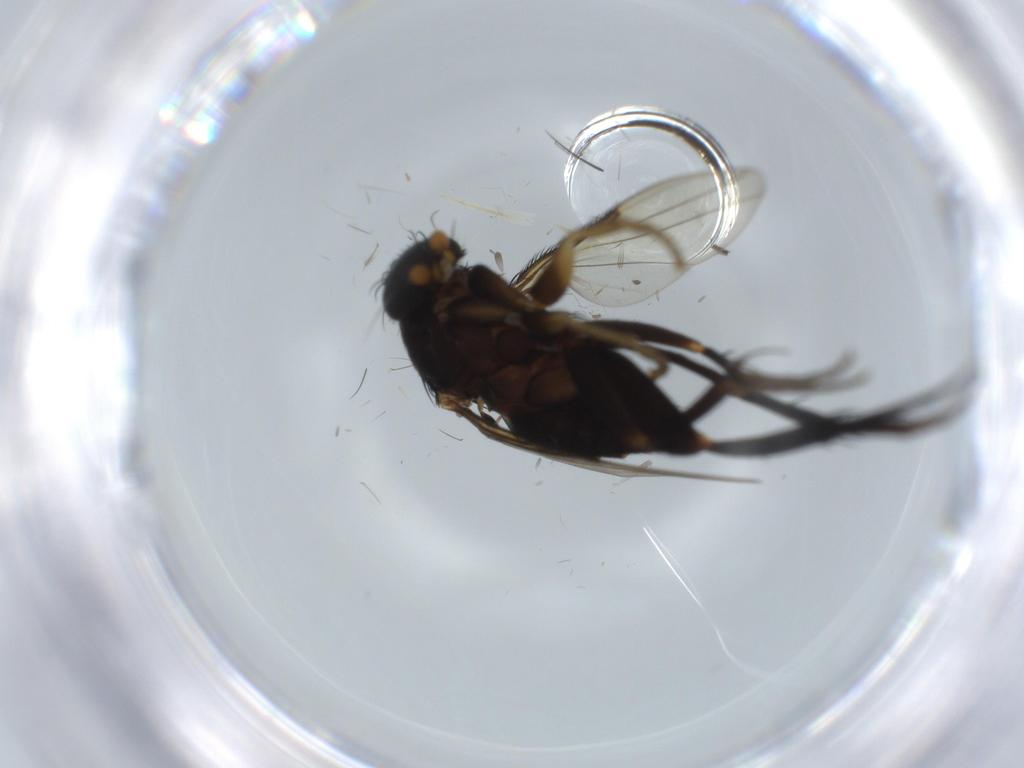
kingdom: Animalia
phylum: Arthropoda
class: Insecta
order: Diptera
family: Phoridae
